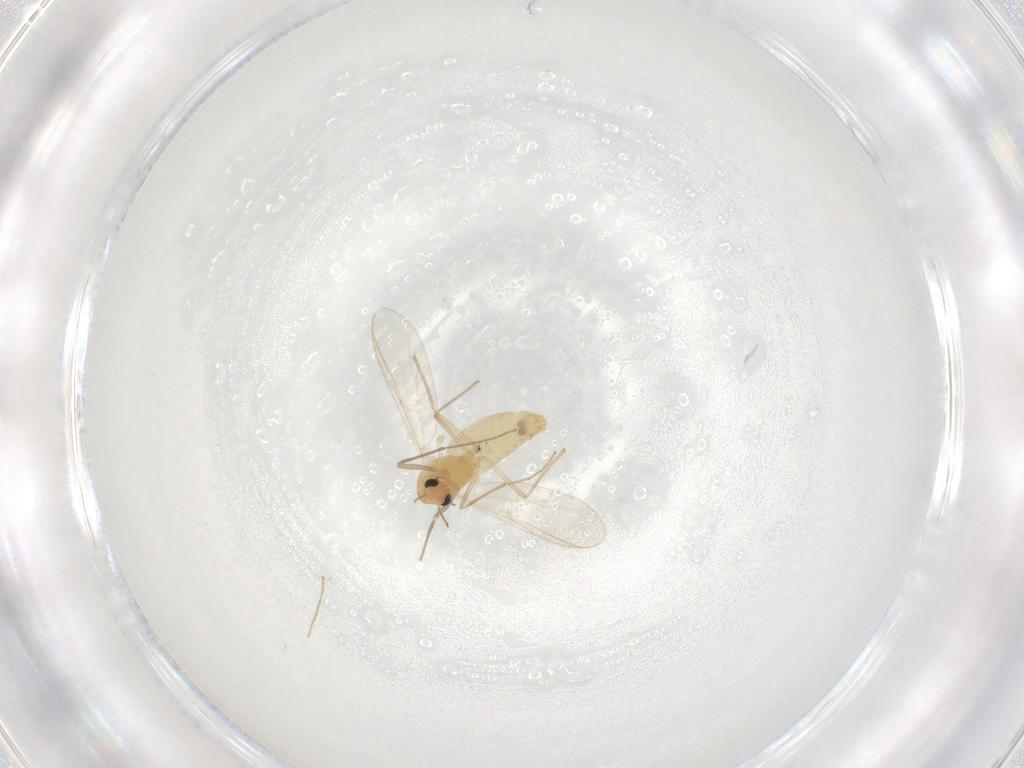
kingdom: Animalia
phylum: Arthropoda
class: Insecta
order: Diptera
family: Chironomidae
